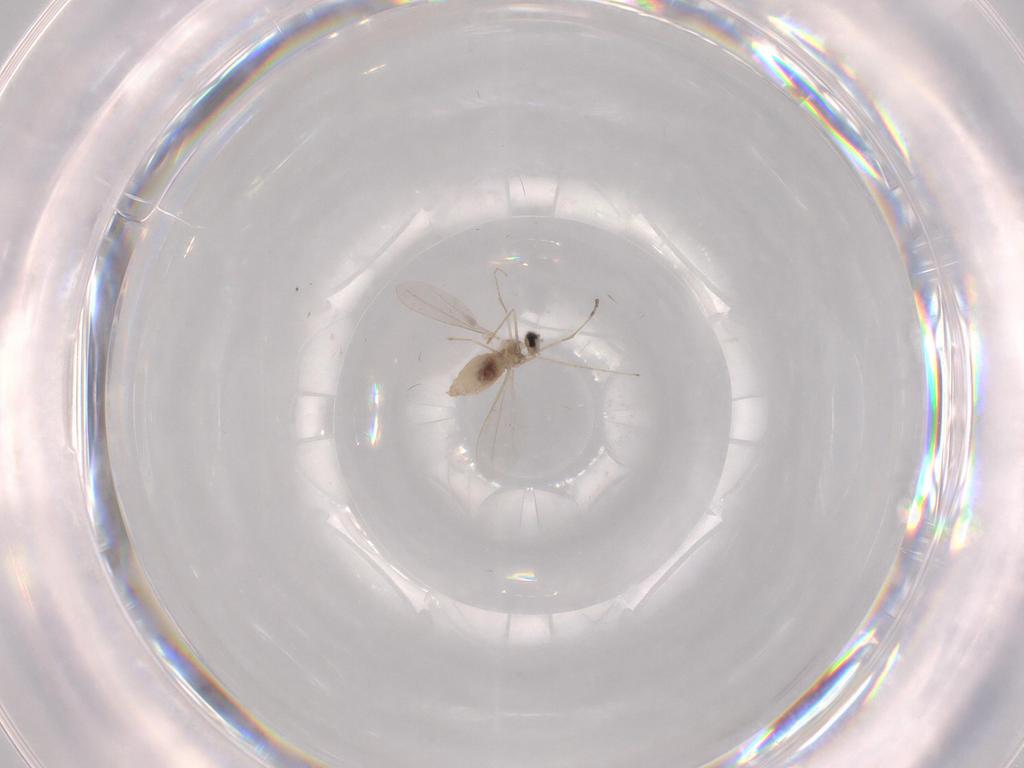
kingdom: Animalia
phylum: Arthropoda
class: Insecta
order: Diptera
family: Cecidomyiidae
